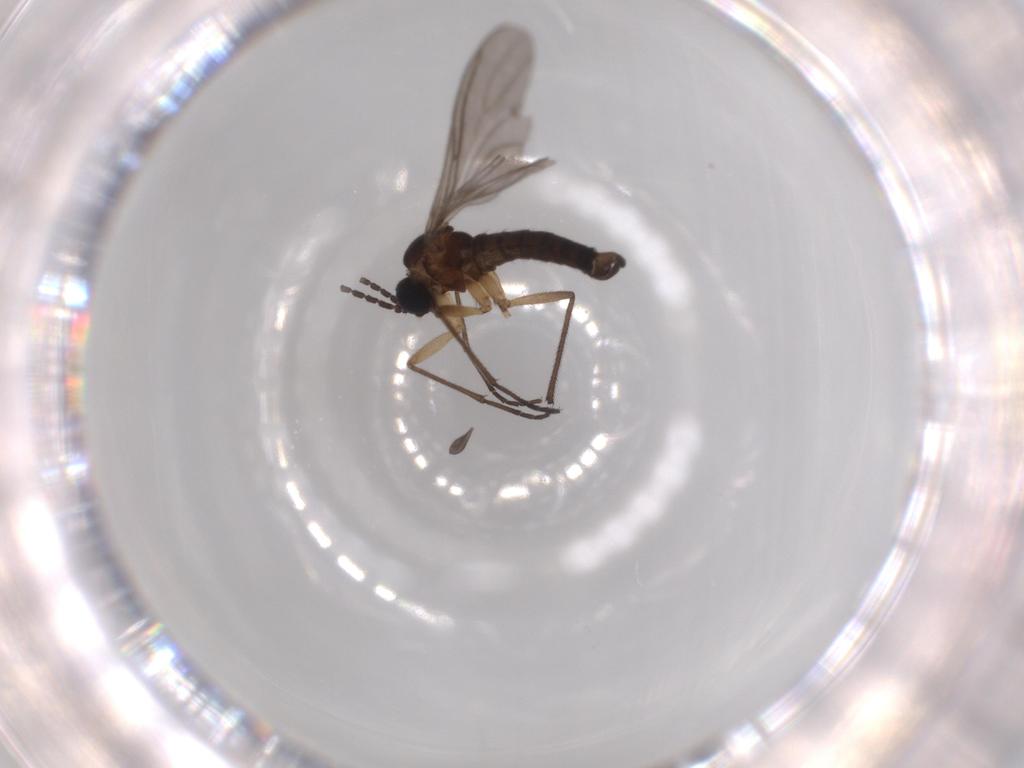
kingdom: Animalia
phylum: Arthropoda
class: Insecta
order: Diptera
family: Sciaridae
